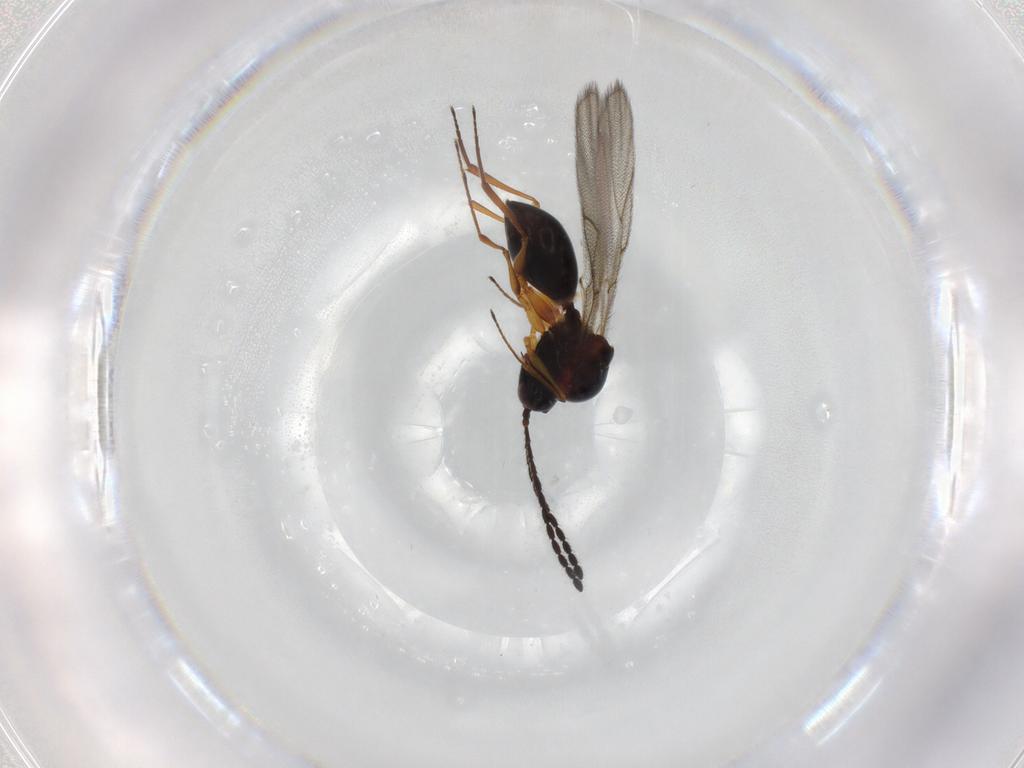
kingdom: Animalia
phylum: Arthropoda
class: Insecta
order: Hymenoptera
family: Figitidae
